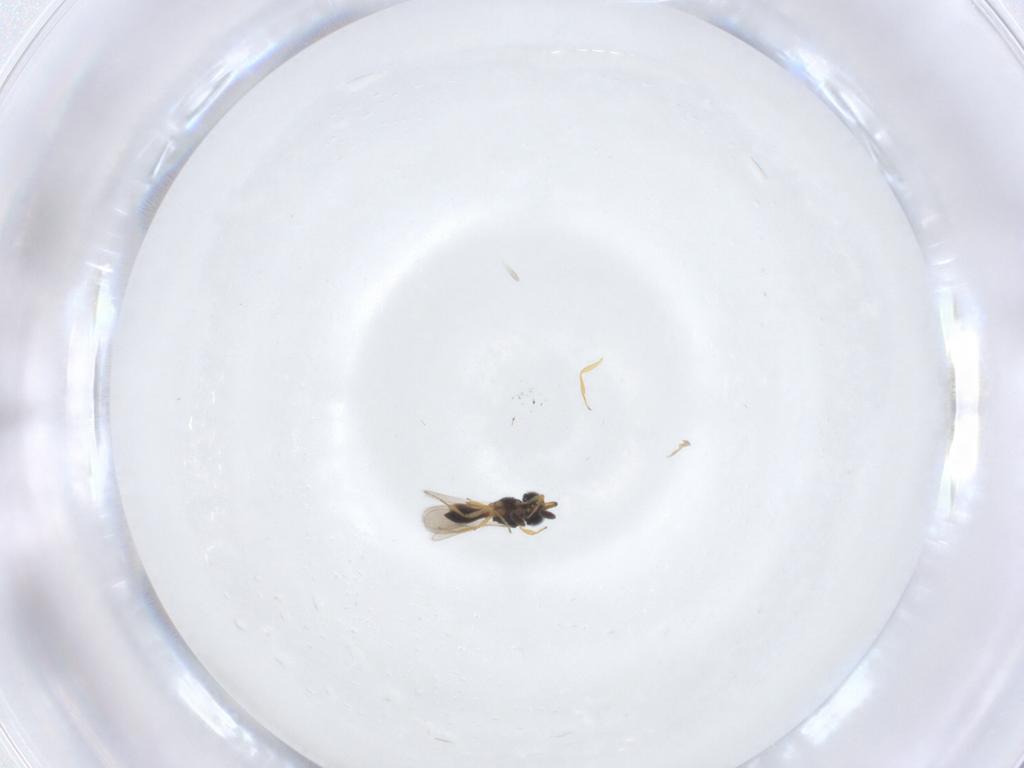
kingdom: Animalia
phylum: Arthropoda
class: Insecta
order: Hymenoptera
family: Scelionidae
